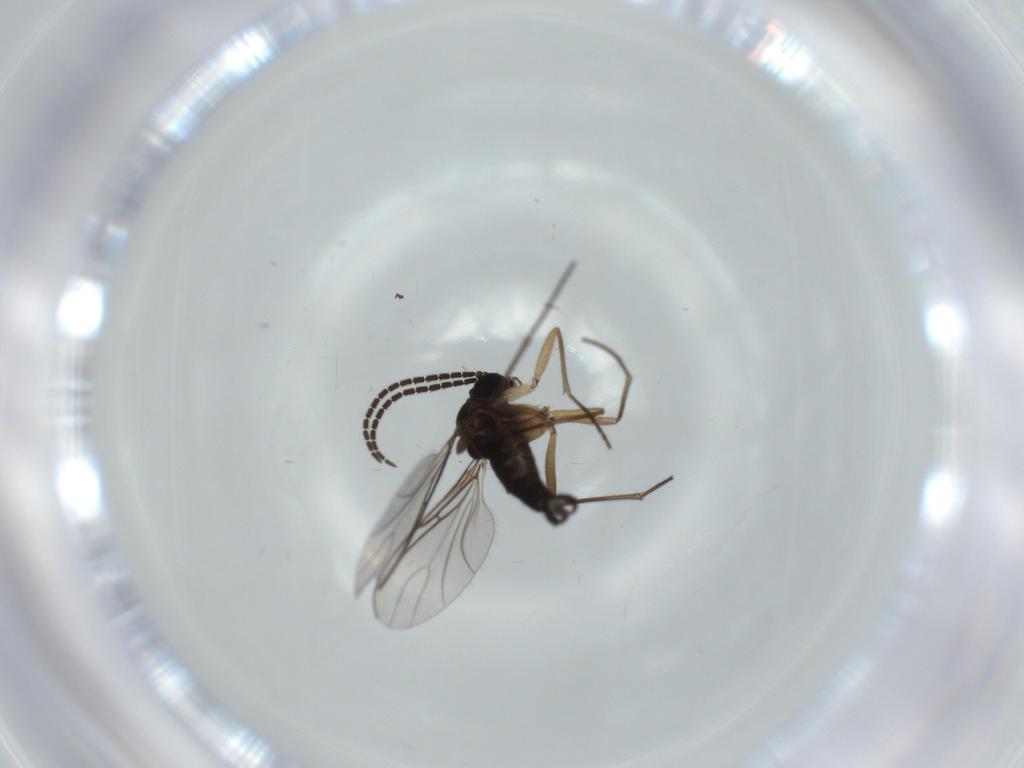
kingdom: Animalia
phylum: Arthropoda
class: Insecta
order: Diptera
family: Sciaridae
